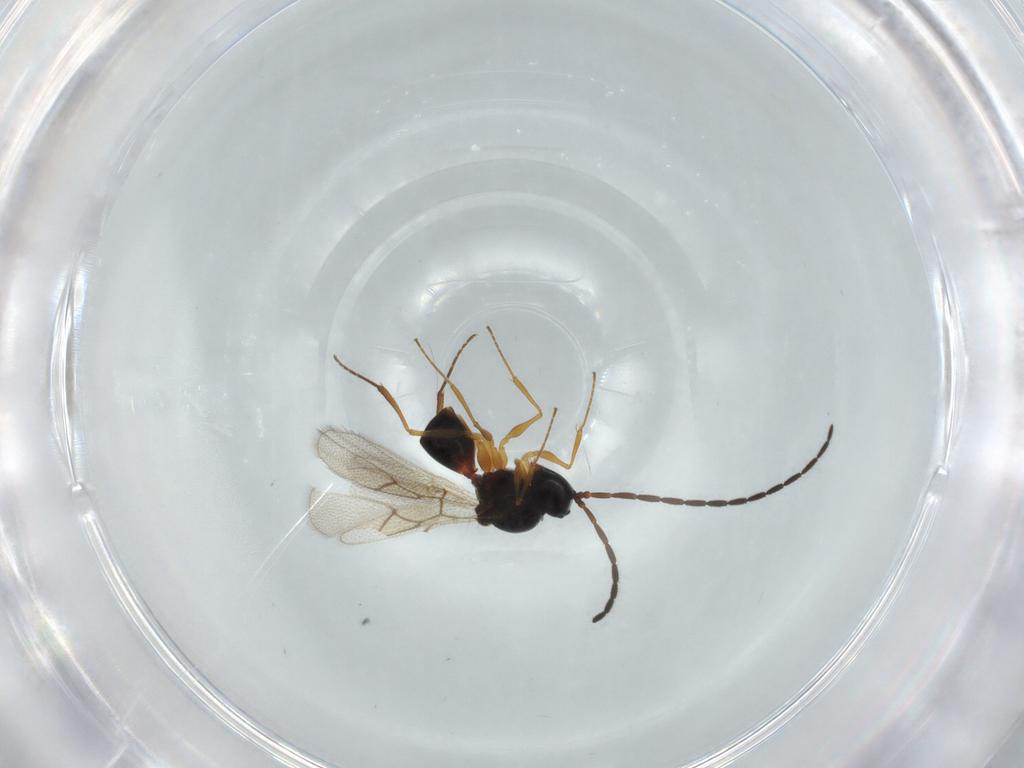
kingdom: Animalia
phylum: Arthropoda
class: Insecta
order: Hymenoptera
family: Figitidae
